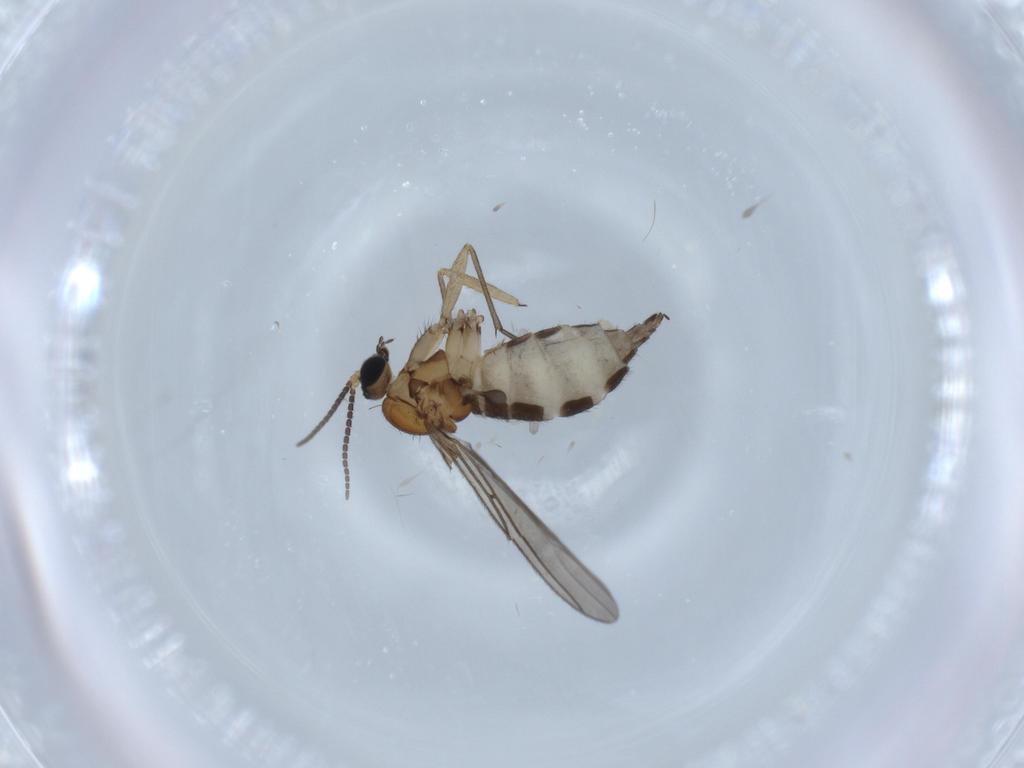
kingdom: Animalia
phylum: Arthropoda
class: Insecta
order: Diptera
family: Sciaridae
